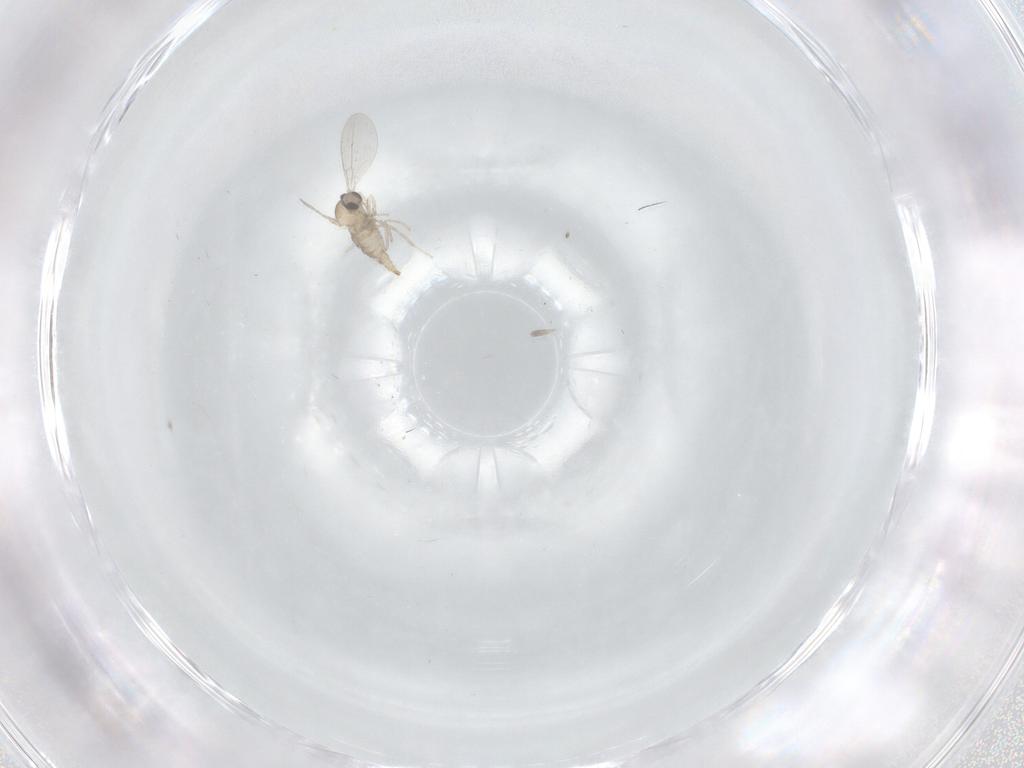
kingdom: Animalia
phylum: Arthropoda
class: Insecta
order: Diptera
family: Cecidomyiidae
